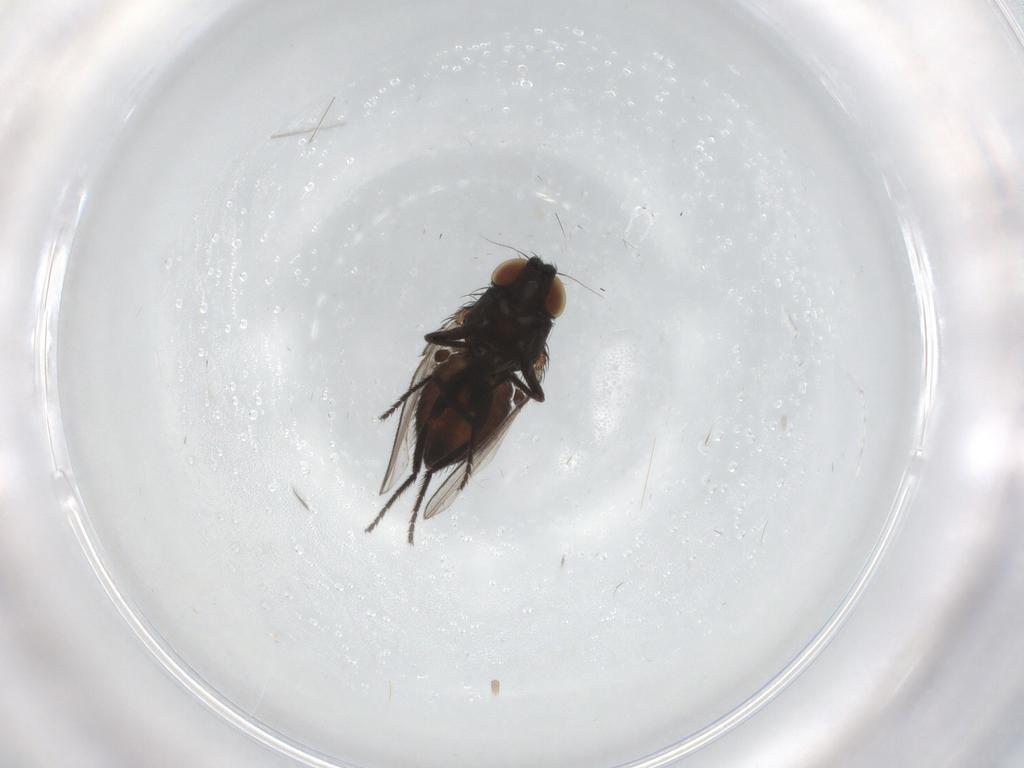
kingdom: Animalia
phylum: Arthropoda
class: Insecta
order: Diptera
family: Milichiidae
